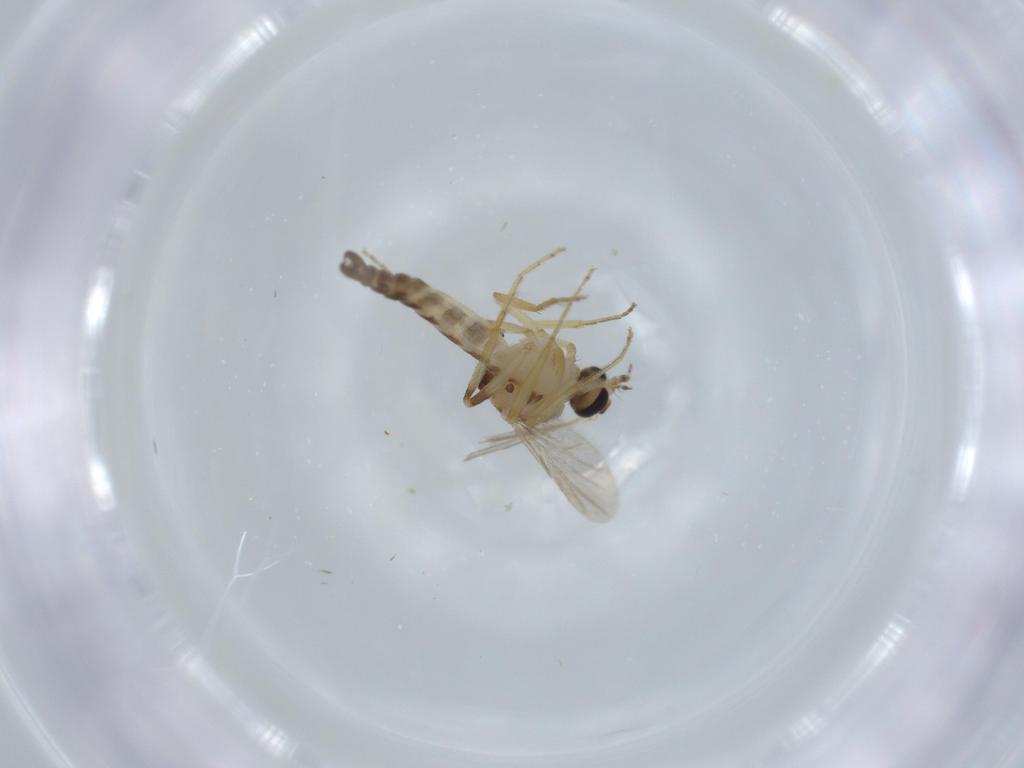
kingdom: Animalia
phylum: Arthropoda
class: Insecta
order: Diptera
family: Ceratopogonidae
